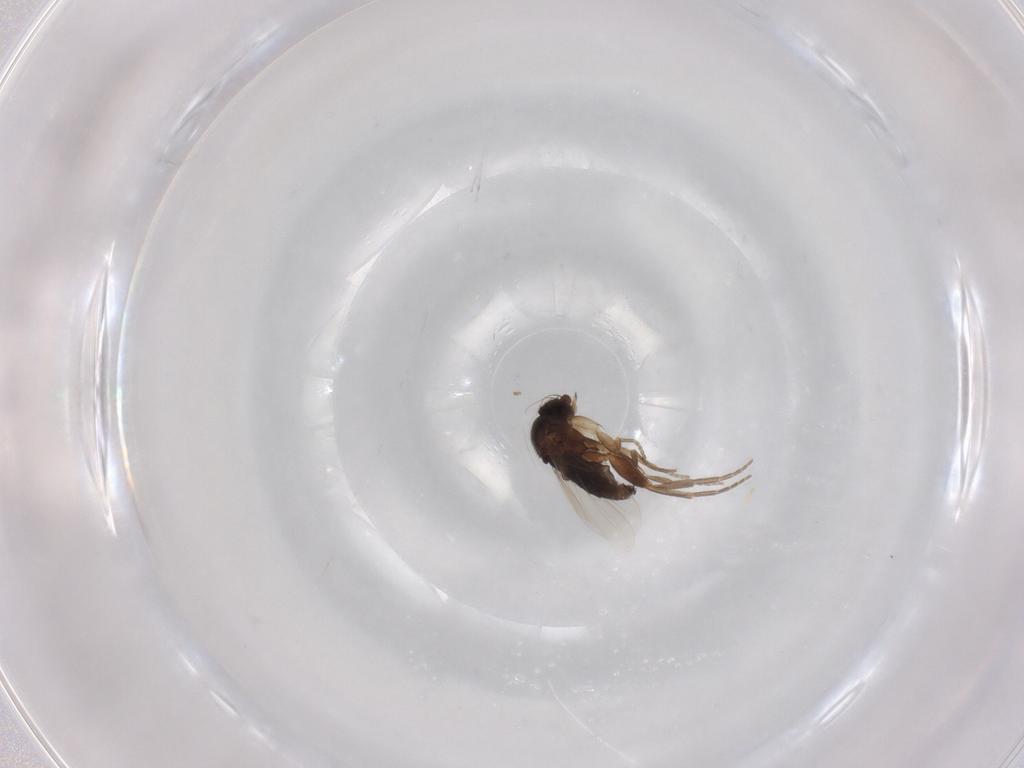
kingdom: Animalia
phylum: Arthropoda
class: Insecta
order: Diptera
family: Phoridae
